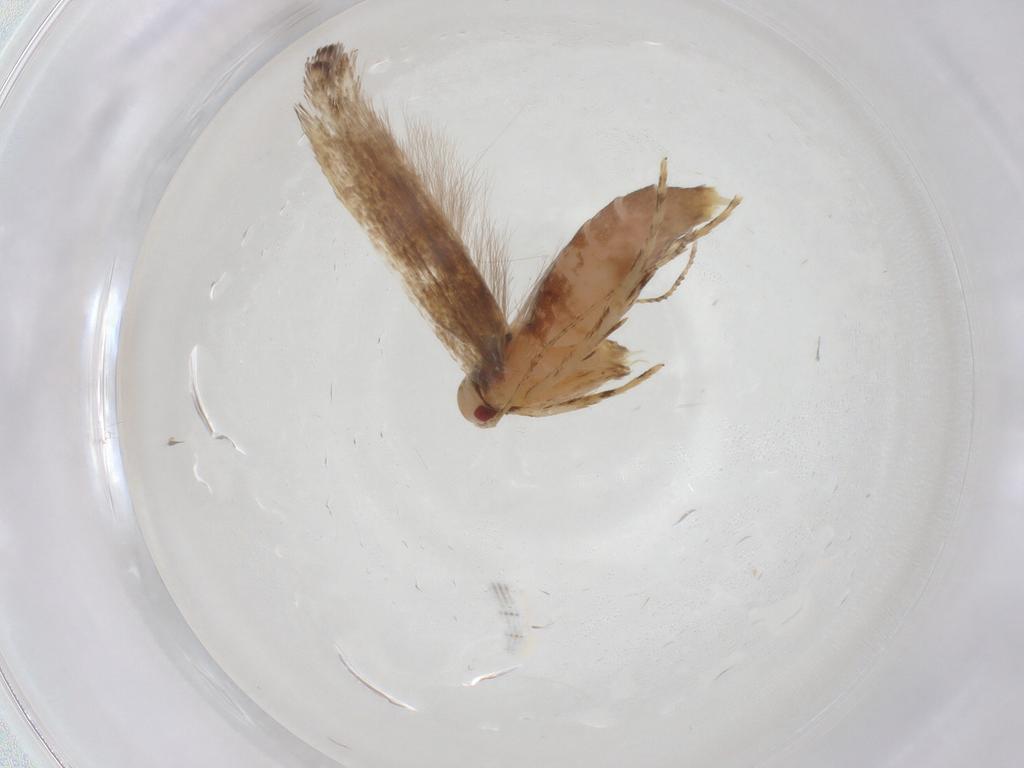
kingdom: Animalia
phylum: Arthropoda
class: Insecta
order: Lepidoptera
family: Cosmopterigidae
